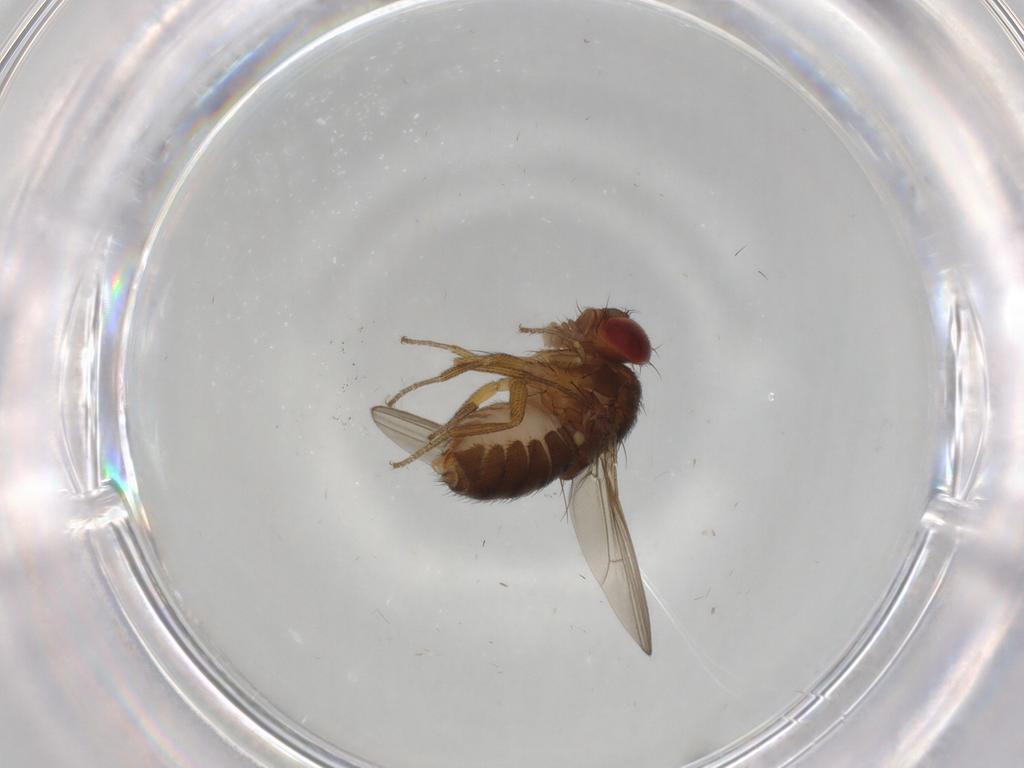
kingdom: Animalia
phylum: Arthropoda
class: Insecta
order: Diptera
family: Drosophilidae
